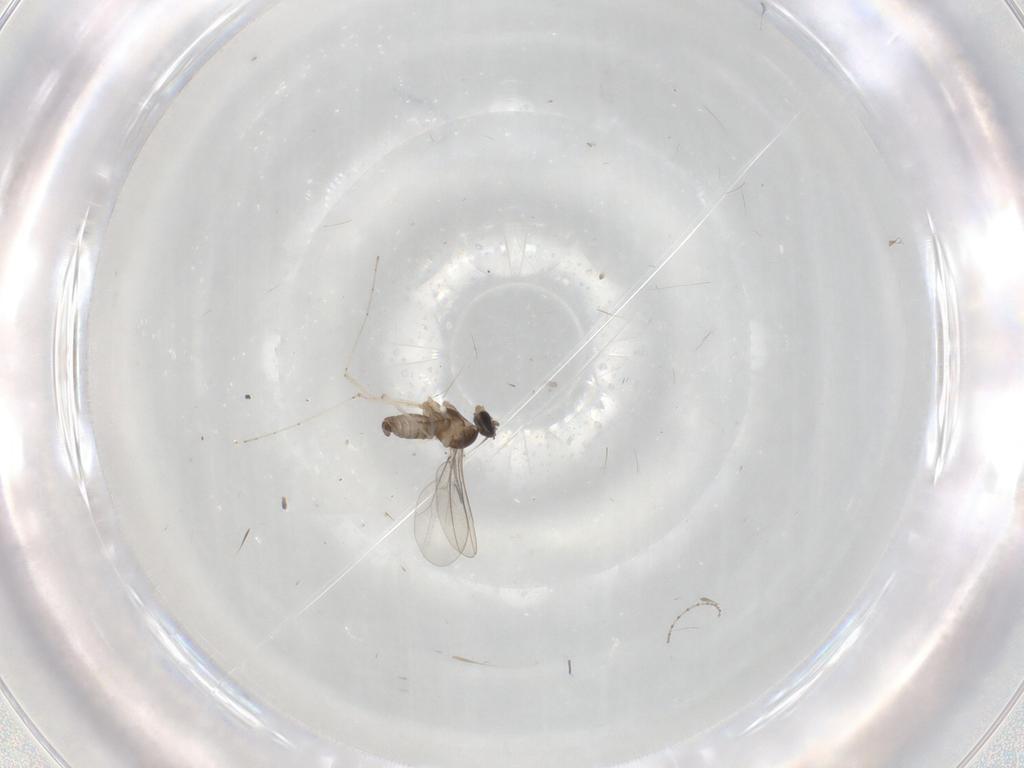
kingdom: Animalia
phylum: Arthropoda
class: Insecta
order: Diptera
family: Cecidomyiidae
